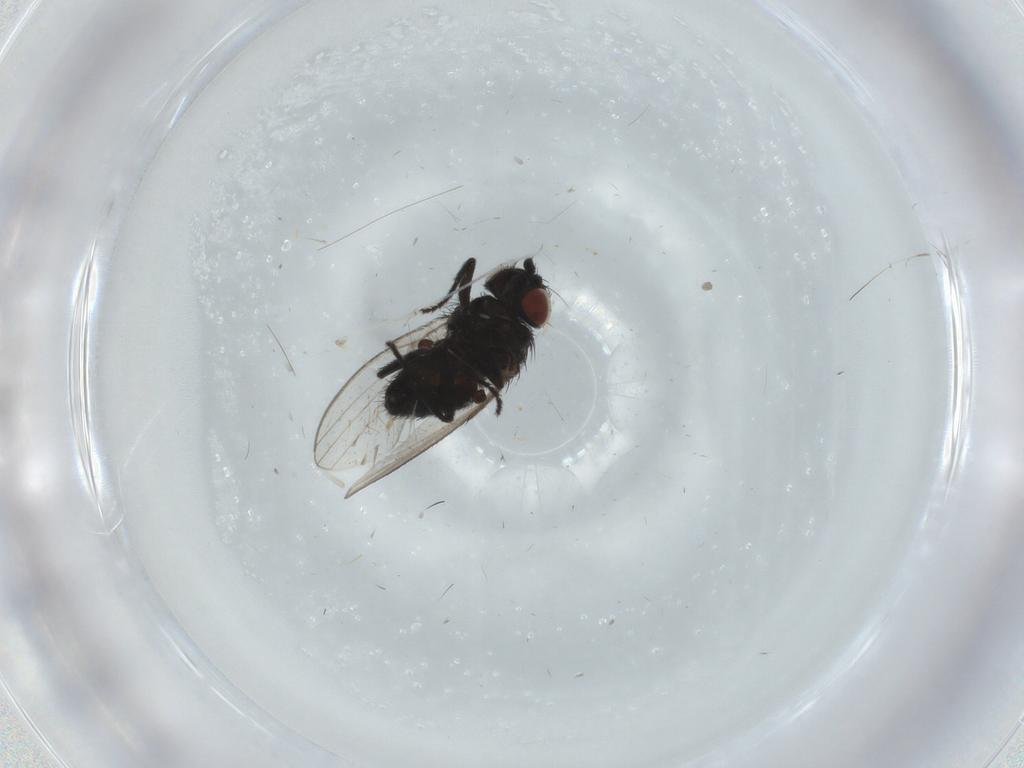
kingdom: Animalia
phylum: Arthropoda
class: Insecta
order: Diptera
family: Cecidomyiidae
